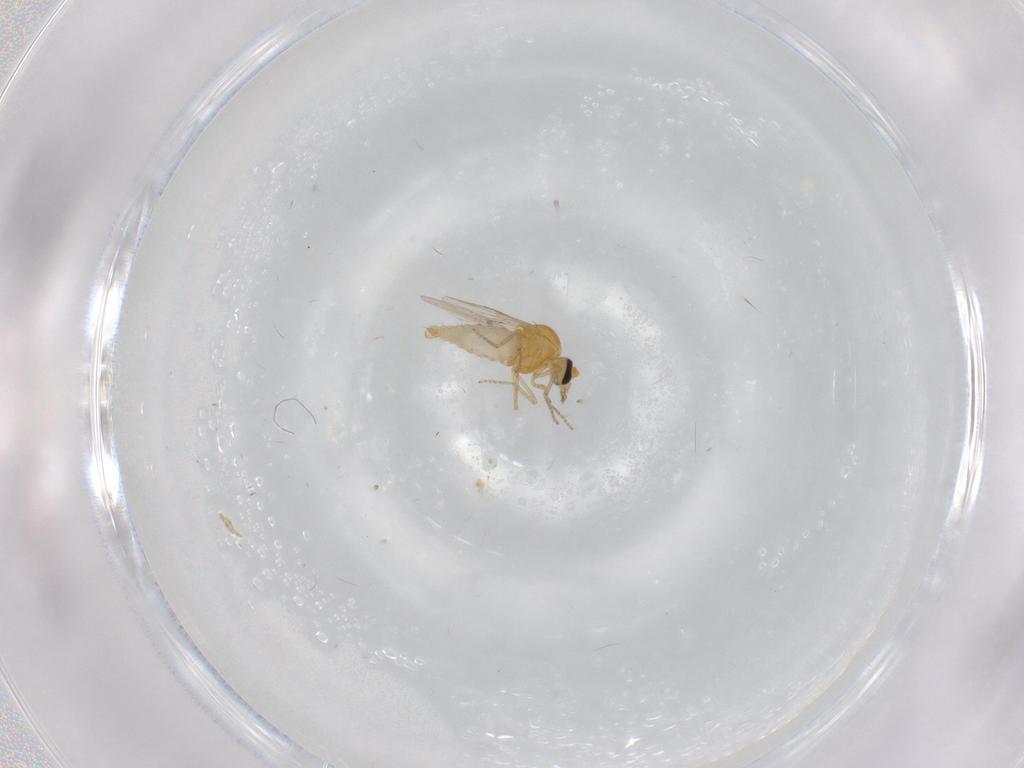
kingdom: Animalia
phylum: Arthropoda
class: Insecta
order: Diptera
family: Ceratopogonidae
